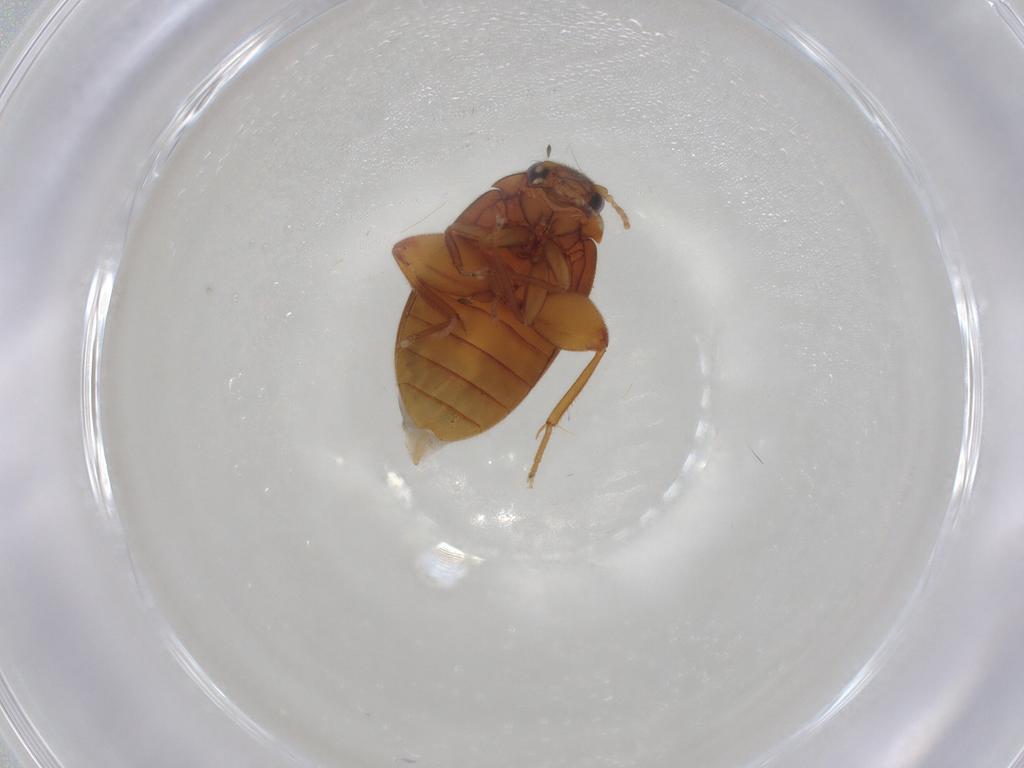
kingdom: Animalia
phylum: Arthropoda
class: Insecta
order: Coleoptera
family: Scirtidae
